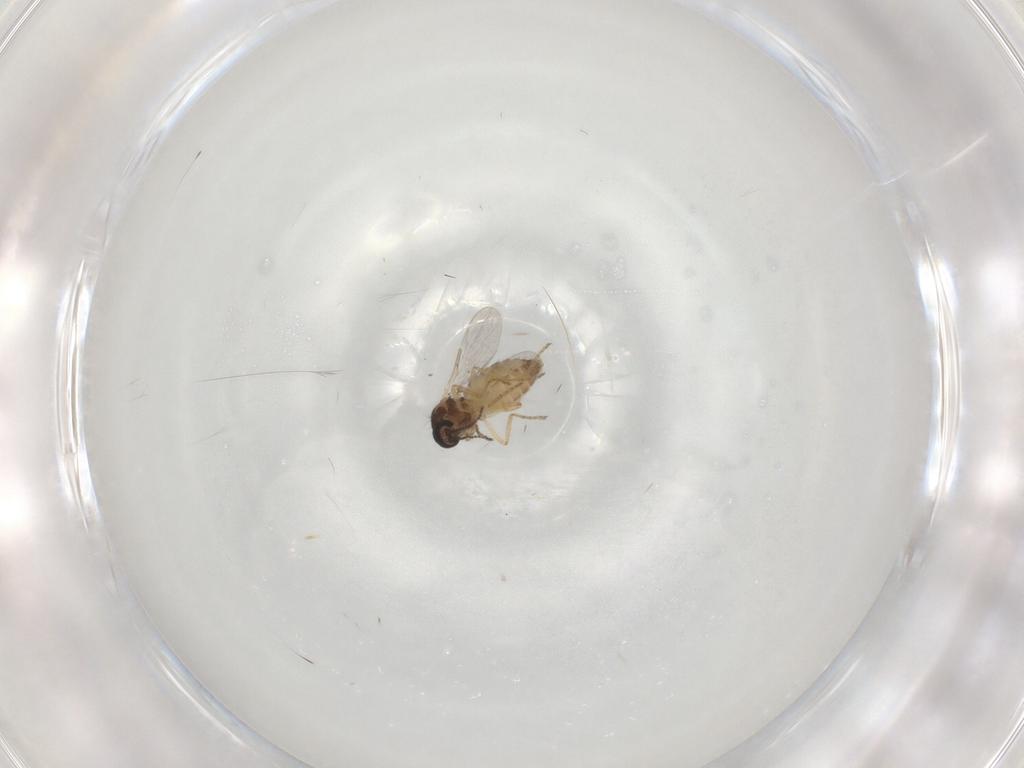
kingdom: Animalia
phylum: Arthropoda
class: Insecta
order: Diptera
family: Ceratopogonidae
